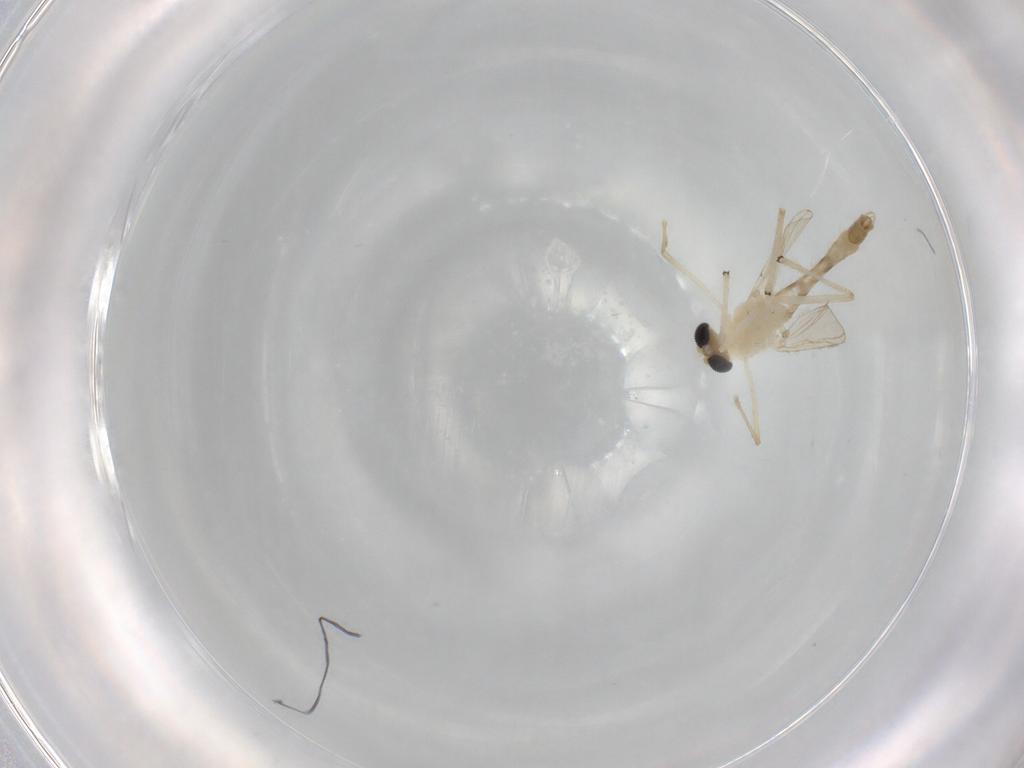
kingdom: Animalia
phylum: Arthropoda
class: Insecta
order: Diptera
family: Chironomidae
